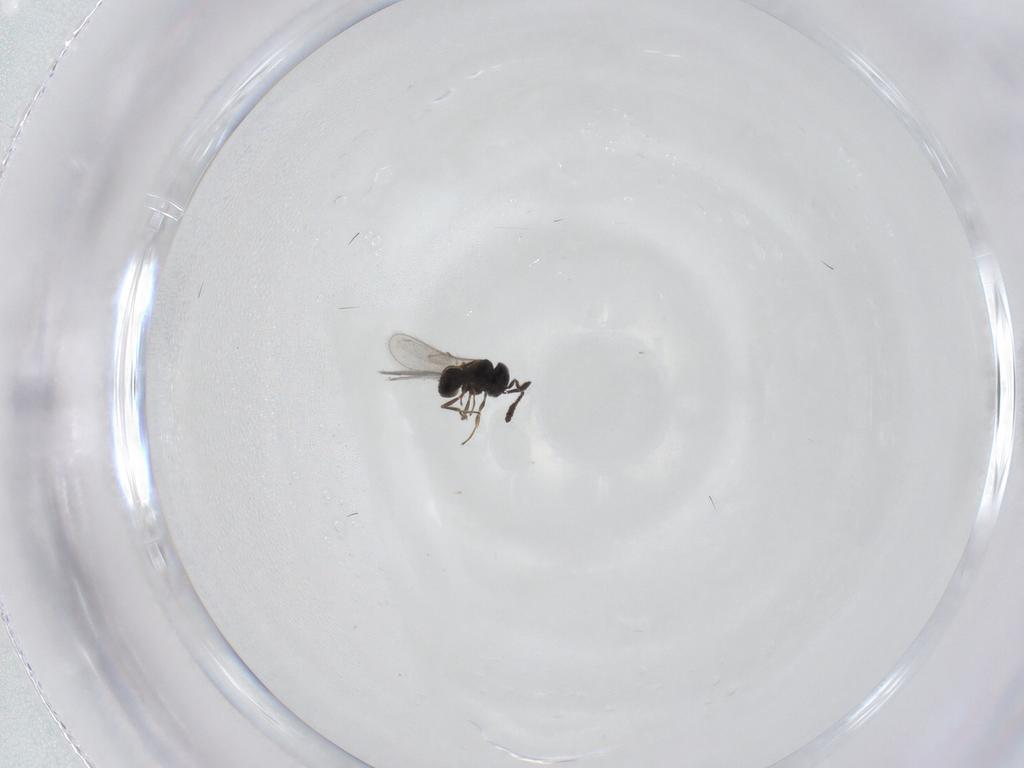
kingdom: Animalia
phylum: Arthropoda
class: Insecta
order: Hymenoptera
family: Scelionidae
